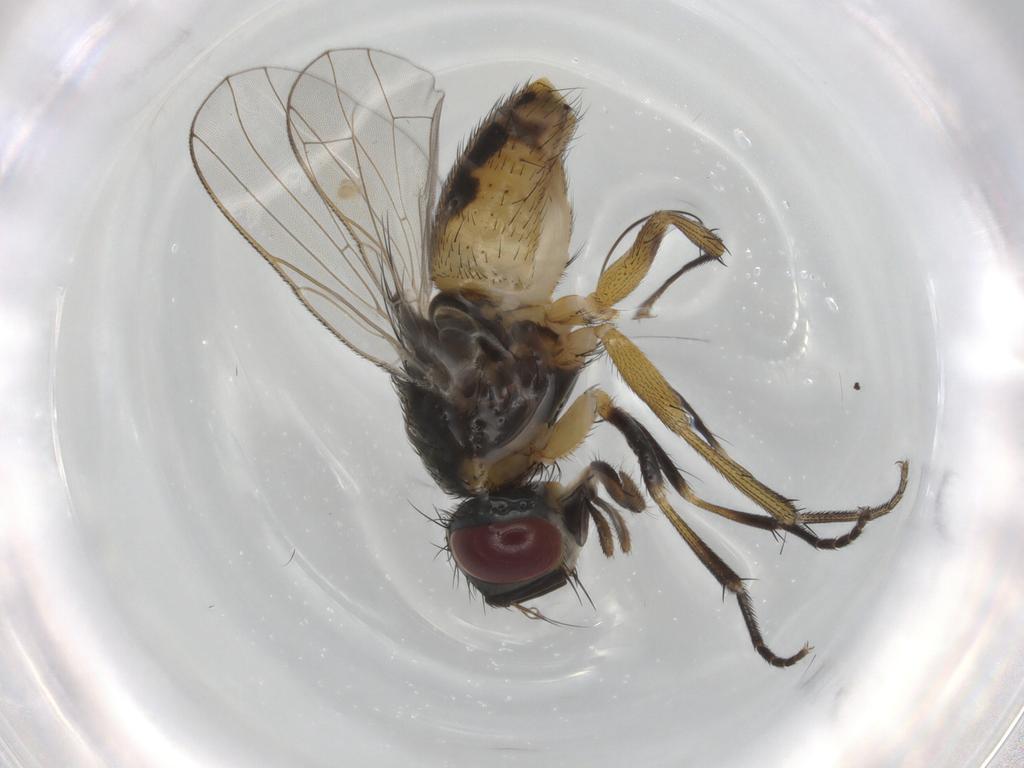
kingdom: Animalia
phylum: Arthropoda
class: Insecta
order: Diptera
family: Muscidae
